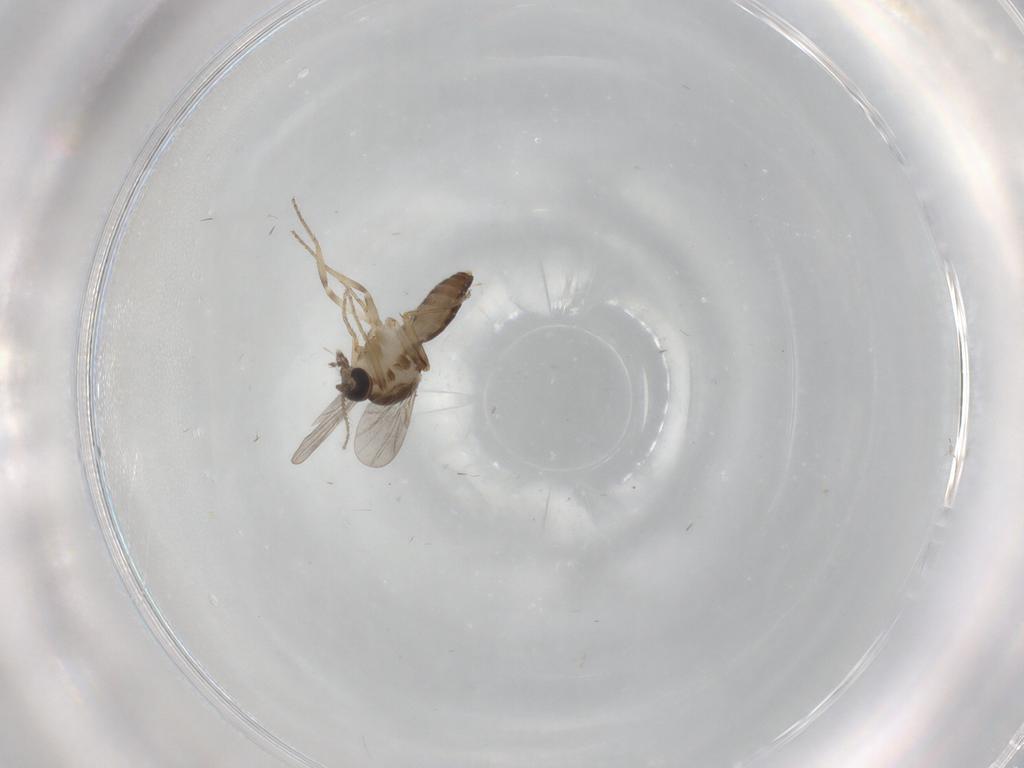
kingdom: Animalia
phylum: Arthropoda
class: Insecta
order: Diptera
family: Ceratopogonidae
